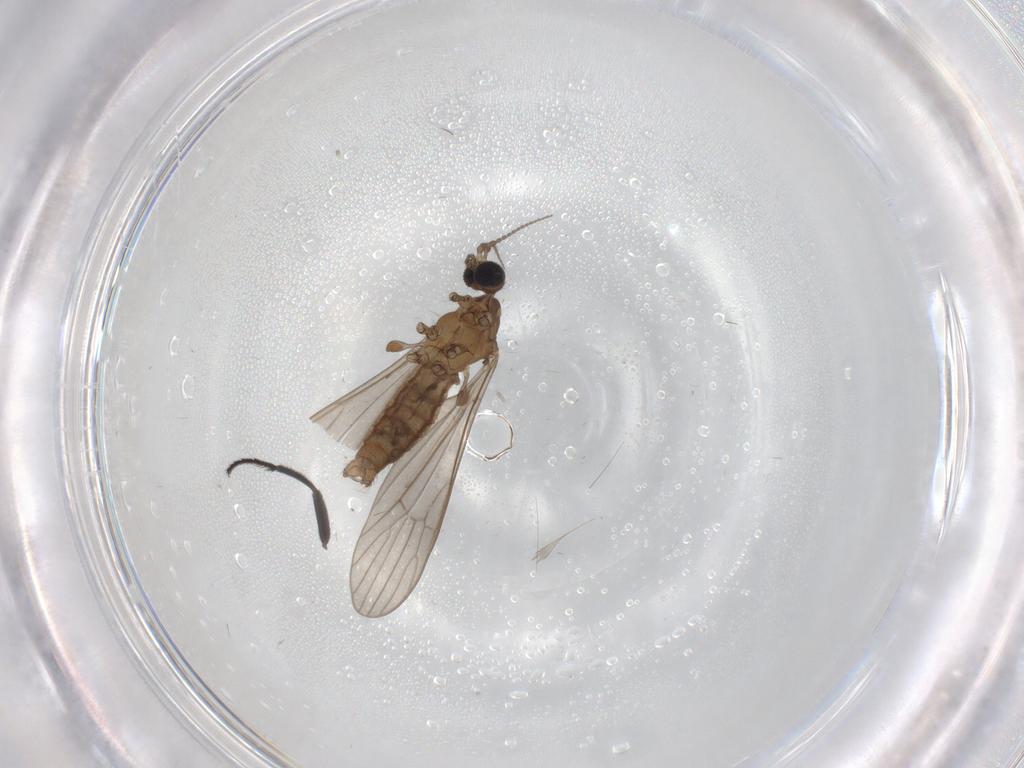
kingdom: Animalia
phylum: Arthropoda
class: Insecta
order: Diptera
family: Limoniidae
